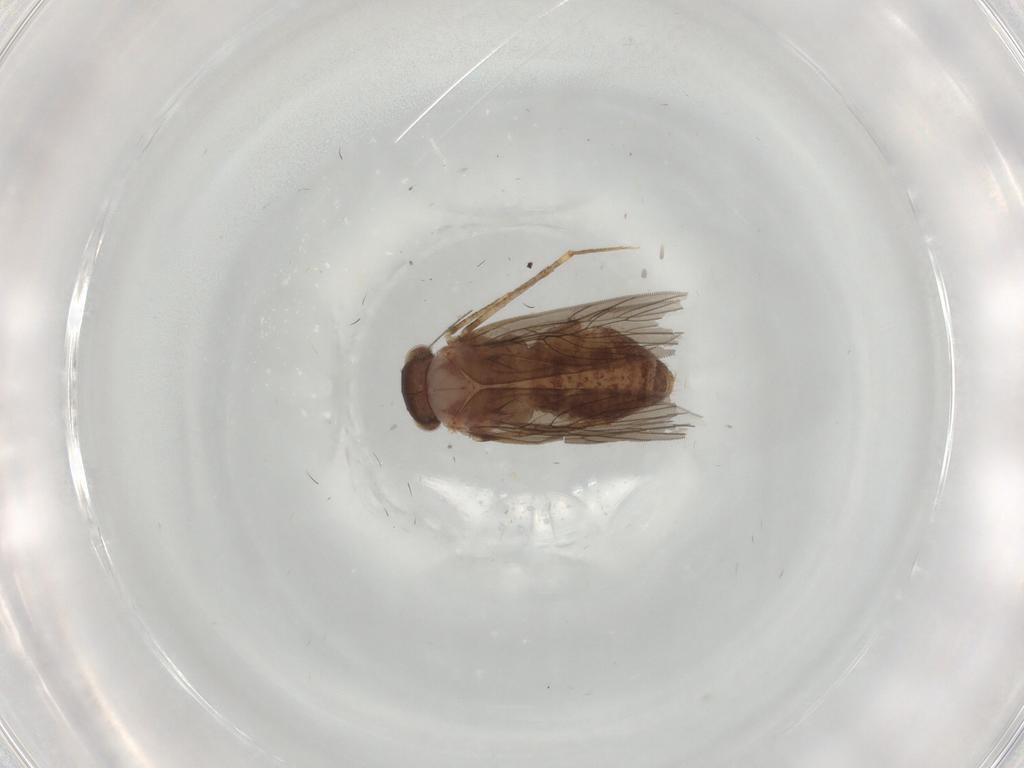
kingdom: Animalia
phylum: Arthropoda
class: Insecta
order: Psocodea
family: Lepidopsocidae
